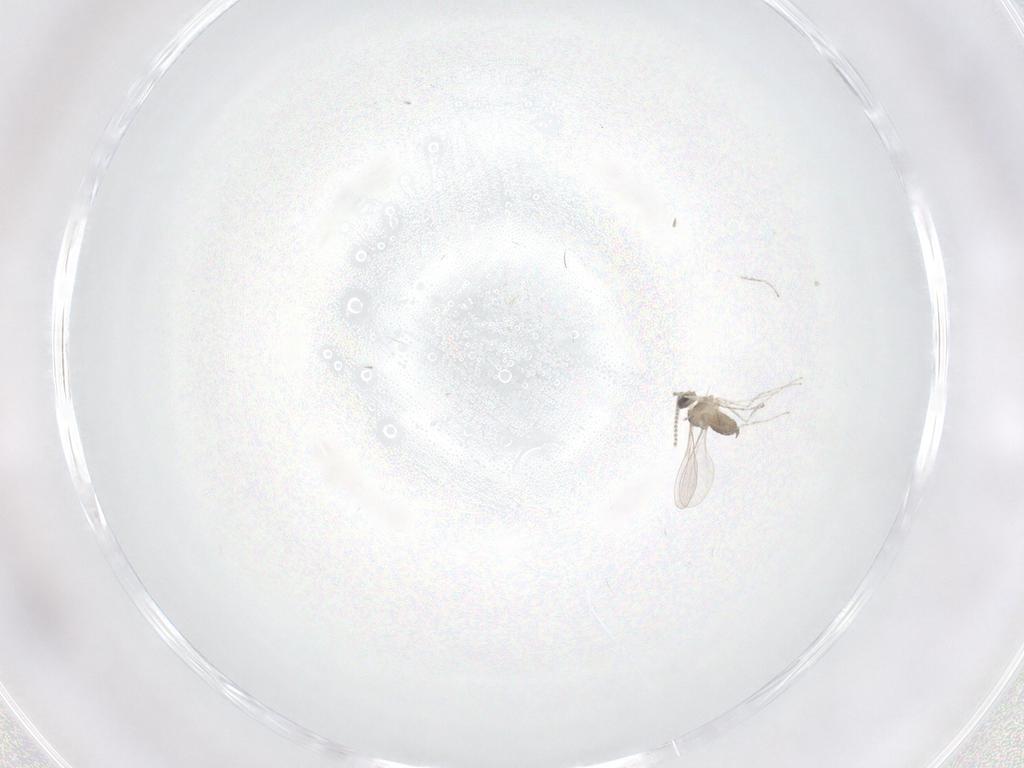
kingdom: Animalia
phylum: Arthropoda
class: Insecta
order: Diptera
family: Cecidomyiidae
